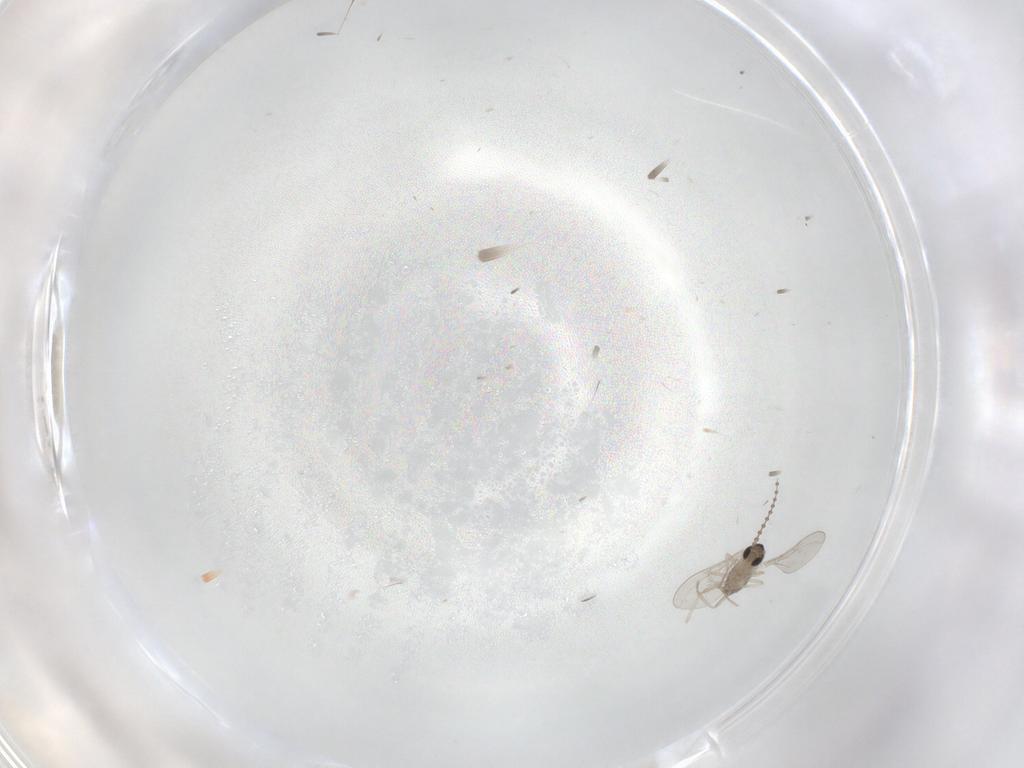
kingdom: Animalia
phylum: Arthropoda
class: Insecta
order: Diptera
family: Cecidomyiidae
